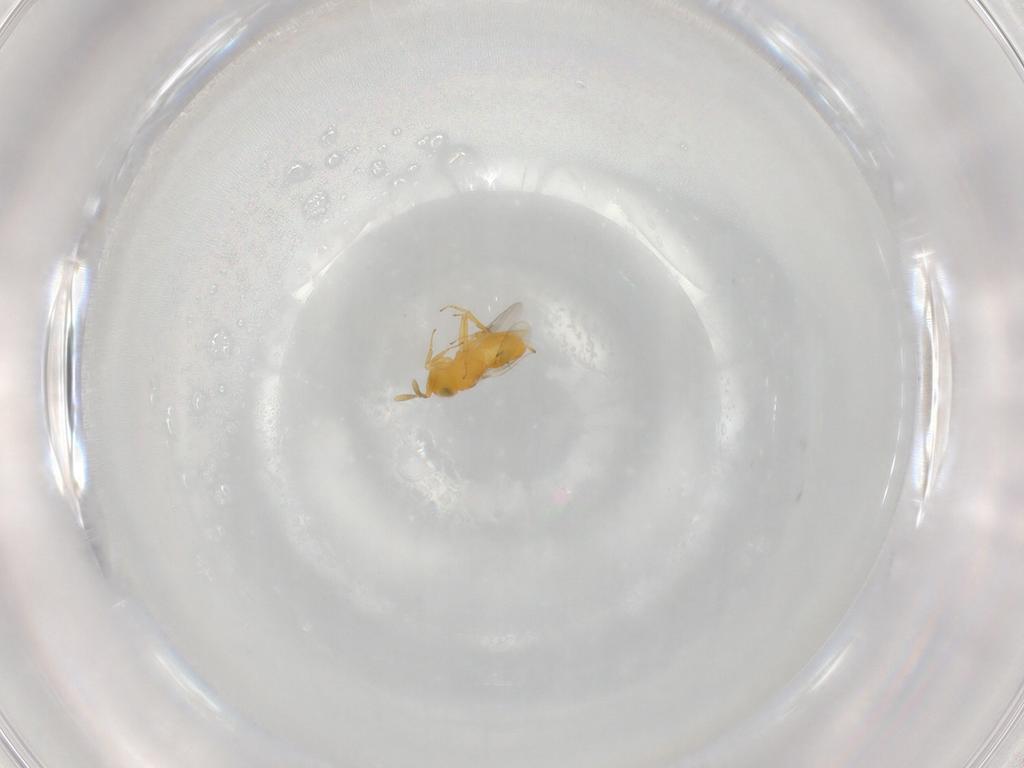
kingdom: Animalia
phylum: Arthropoda
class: Insecta
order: Hymenoptera
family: Encyrtidae
